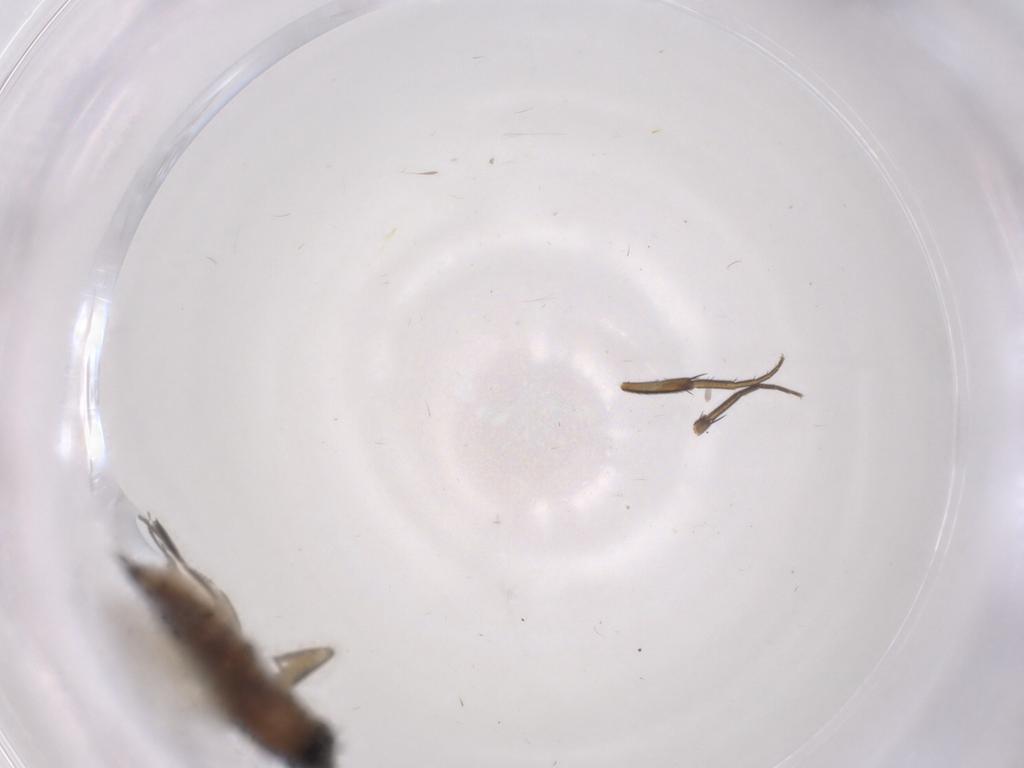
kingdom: Animalia
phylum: Arthropoda
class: Insecta
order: Diptera
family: Phoridae
